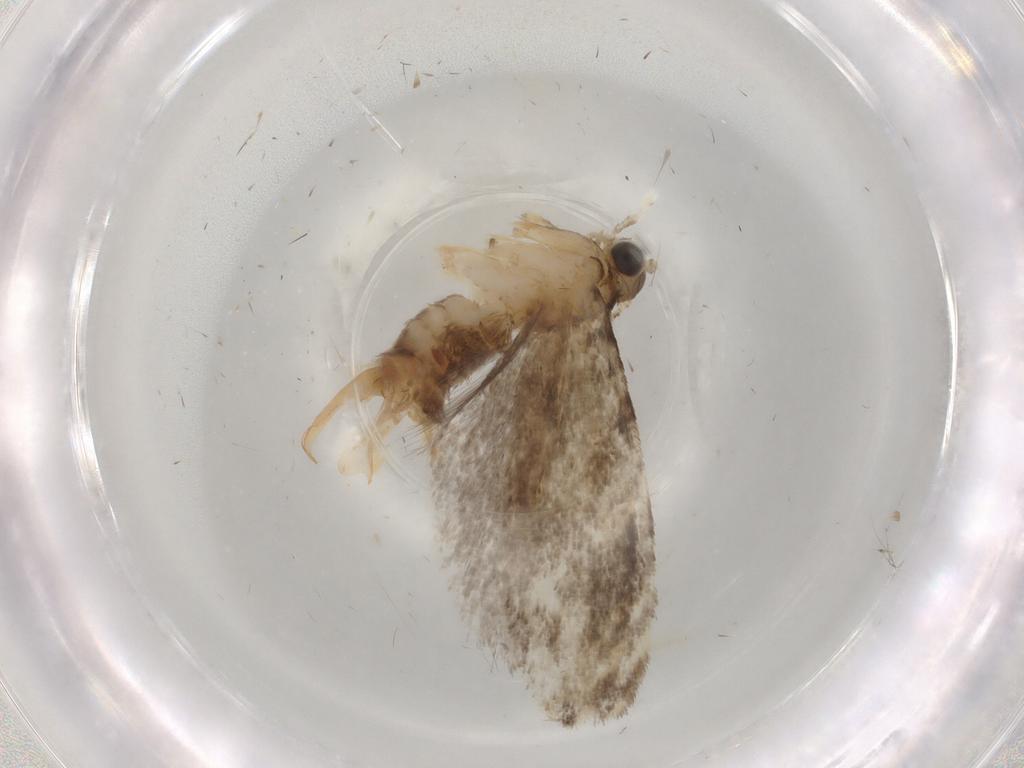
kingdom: Animalia
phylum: Arthropoda
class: Insecta
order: Lepidoptera
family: Tineidae
